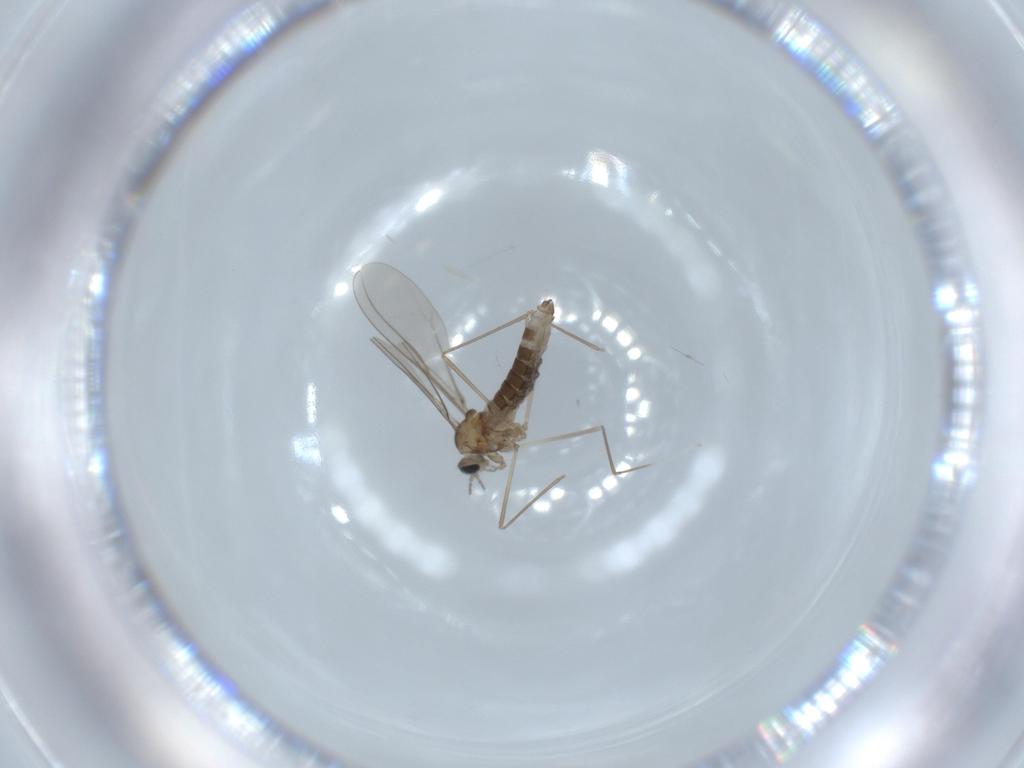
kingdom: Animalia
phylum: Arthropoda
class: Insecta
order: Diptera
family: Cecidomyiidae
